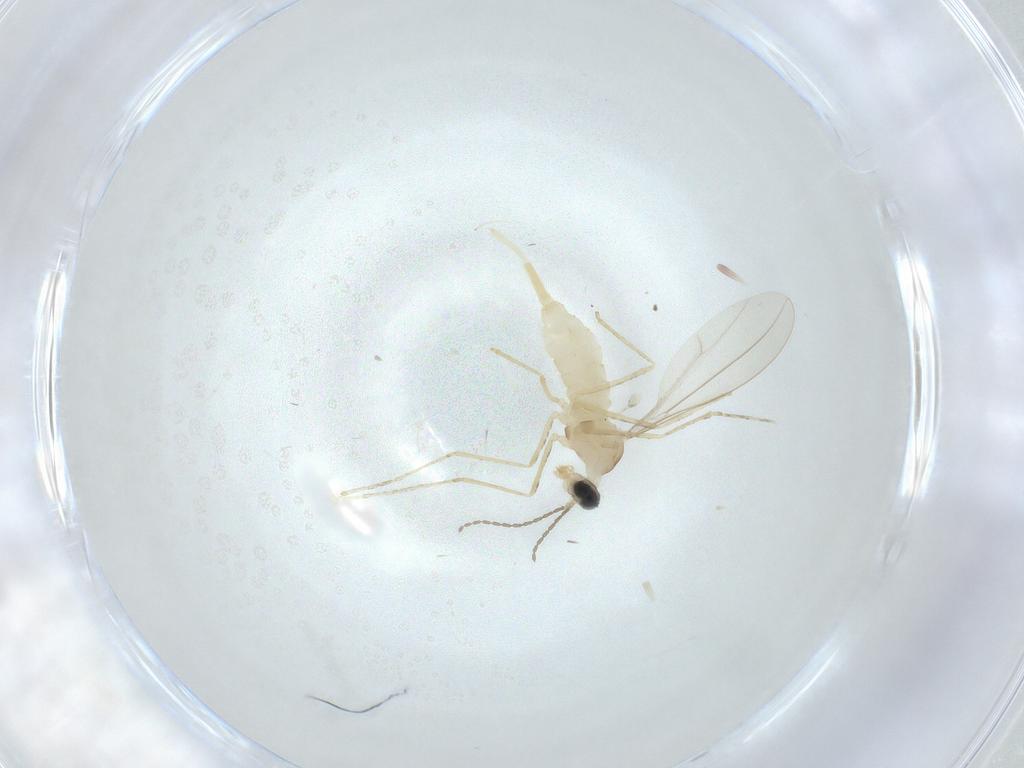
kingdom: Animalia
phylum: Arthropoda
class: Insecta
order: Diptera
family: Cecidomyiidae
